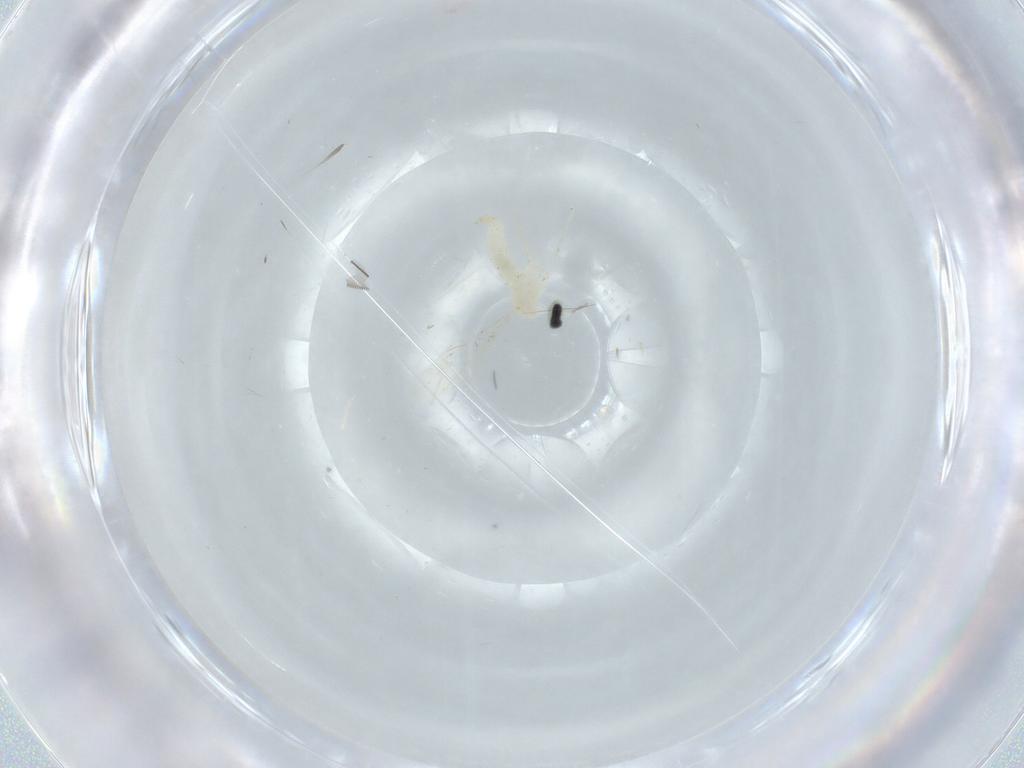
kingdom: Animalia
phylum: Arthropoda
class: Insecta
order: Diptera
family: Cecidomyiidae
